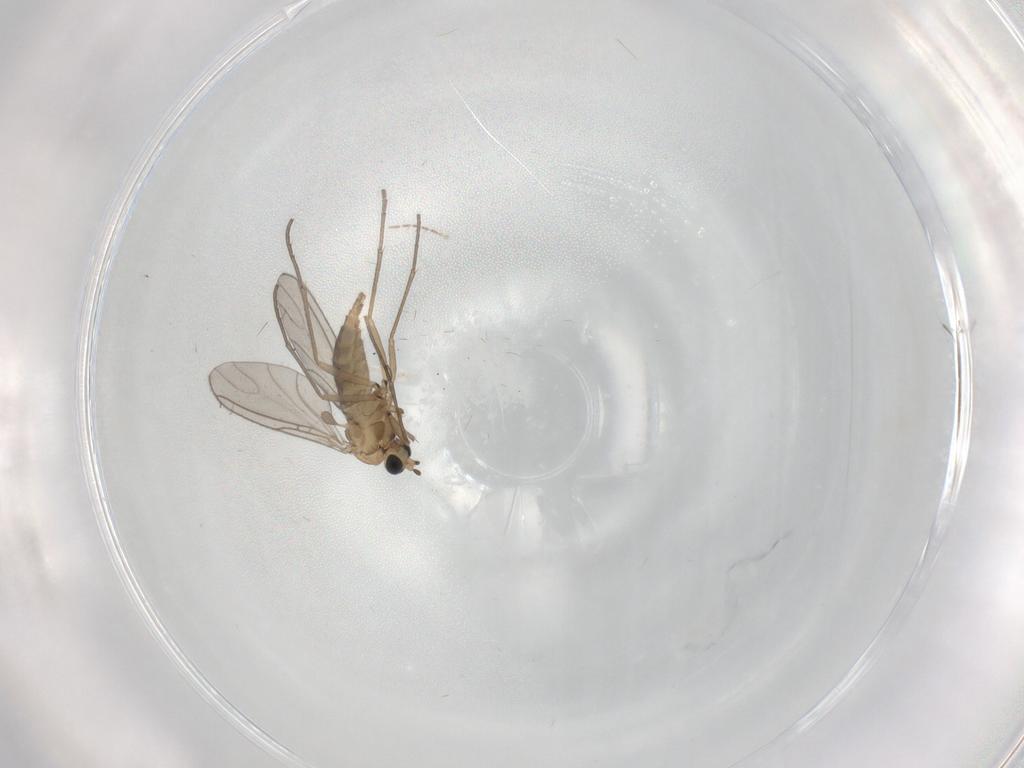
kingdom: Animalia
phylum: Arthropoda
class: Insecta
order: Diptera
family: Sciaridae
